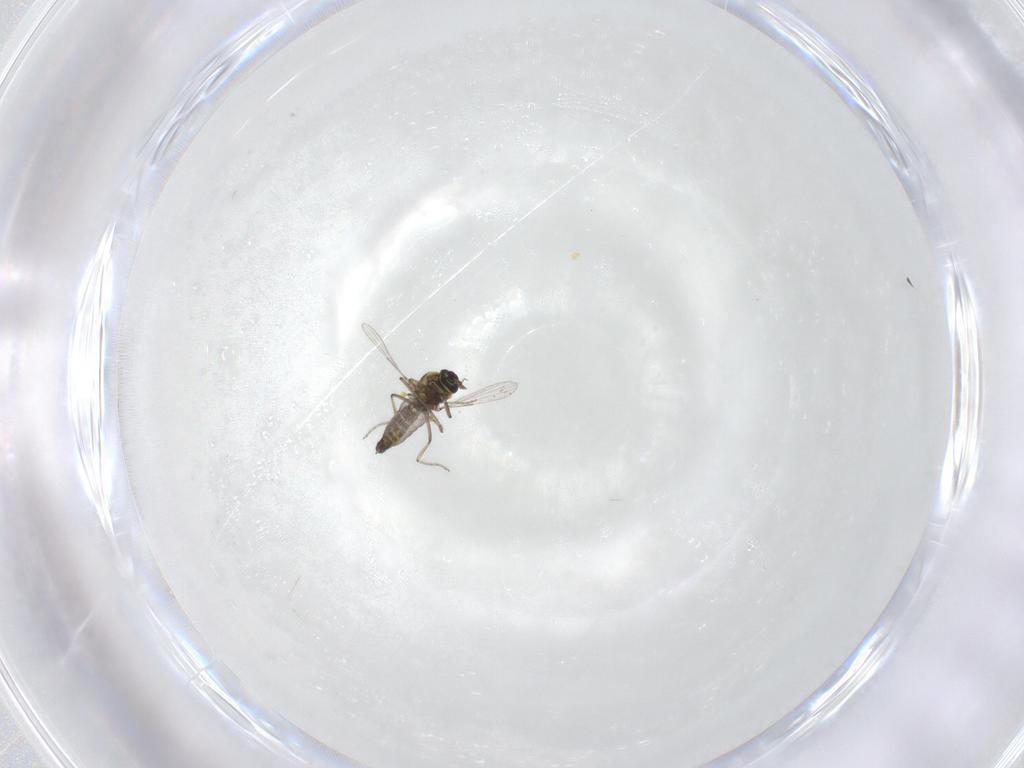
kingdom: Animalia
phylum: Arthropoda
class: Insecta
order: Diptera
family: Ceratopogonidae
